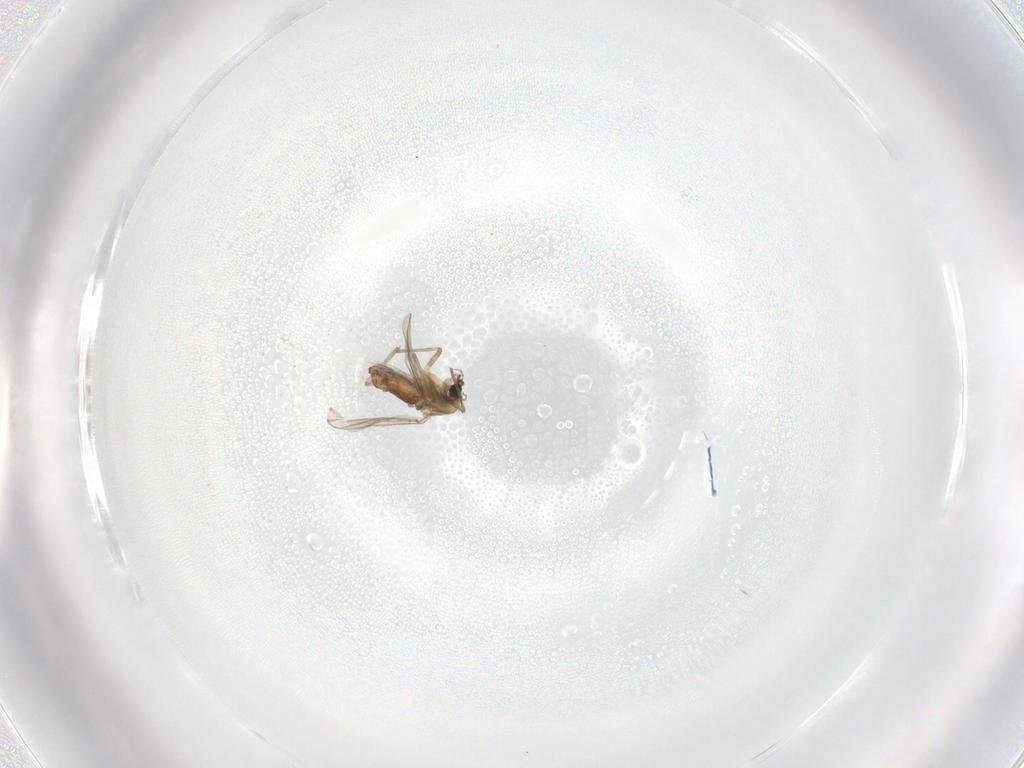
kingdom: Animalia
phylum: Arthropoda
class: Insecta
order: Diptera
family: Chironomidae
